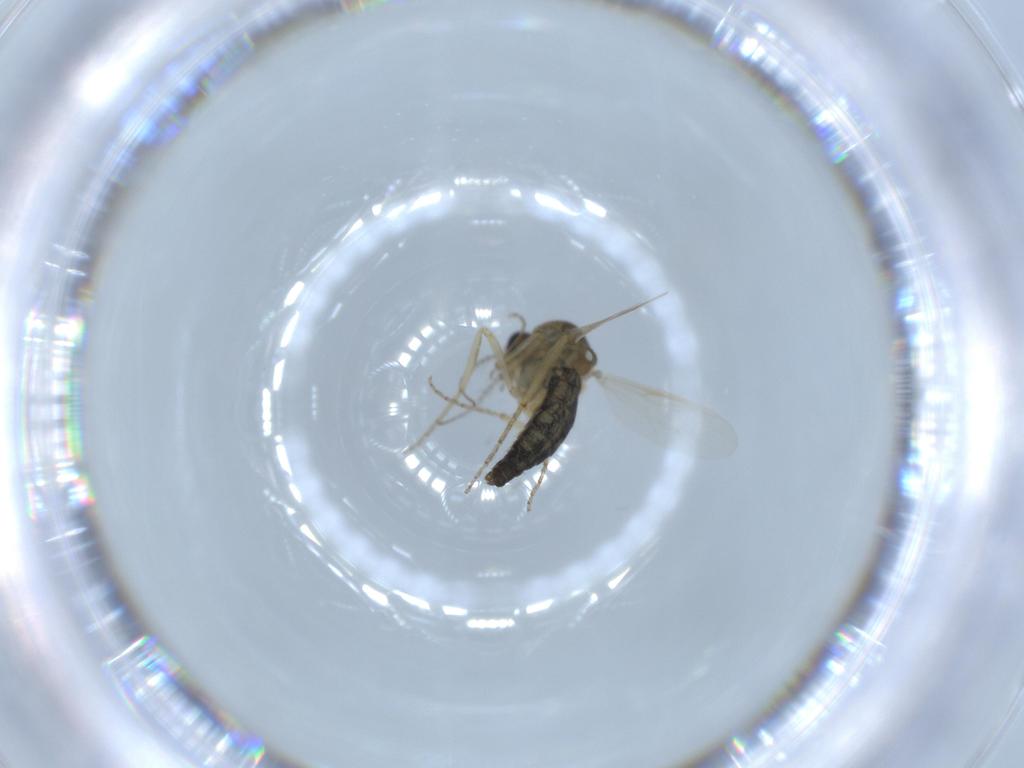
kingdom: Animalia
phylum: Arthropoda
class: Insecta
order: Diptera
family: Ceratopogonidae
